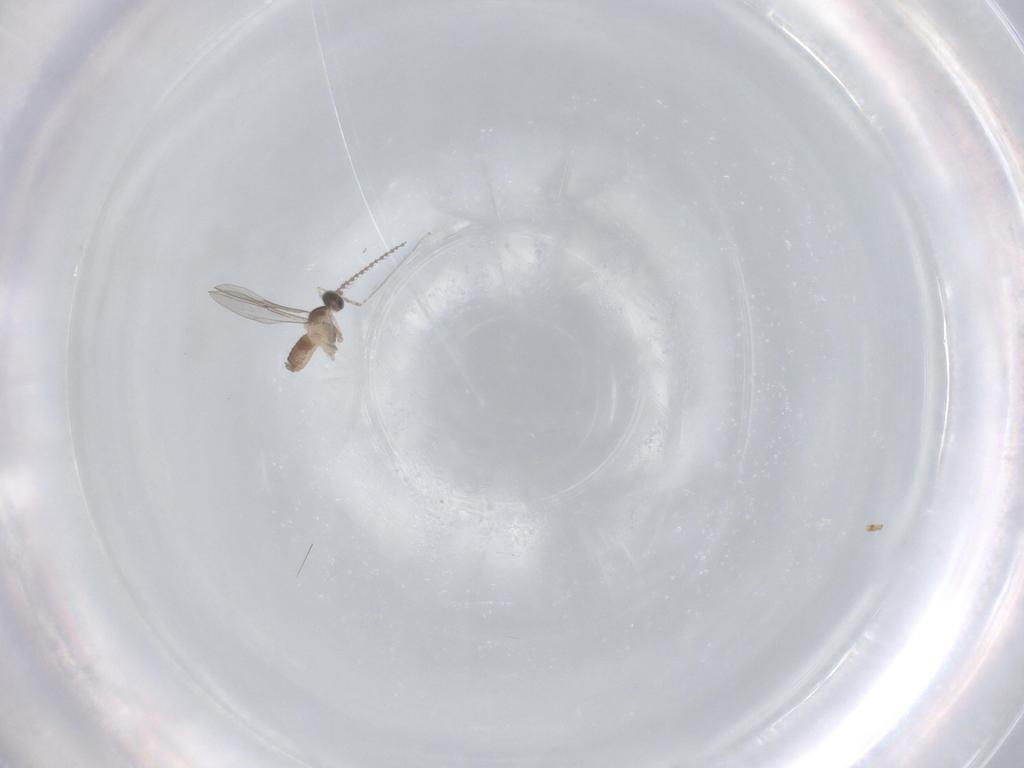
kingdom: Animalia
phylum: Arthropoda
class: Insecta
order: Diptera
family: Cecidomyiidae
